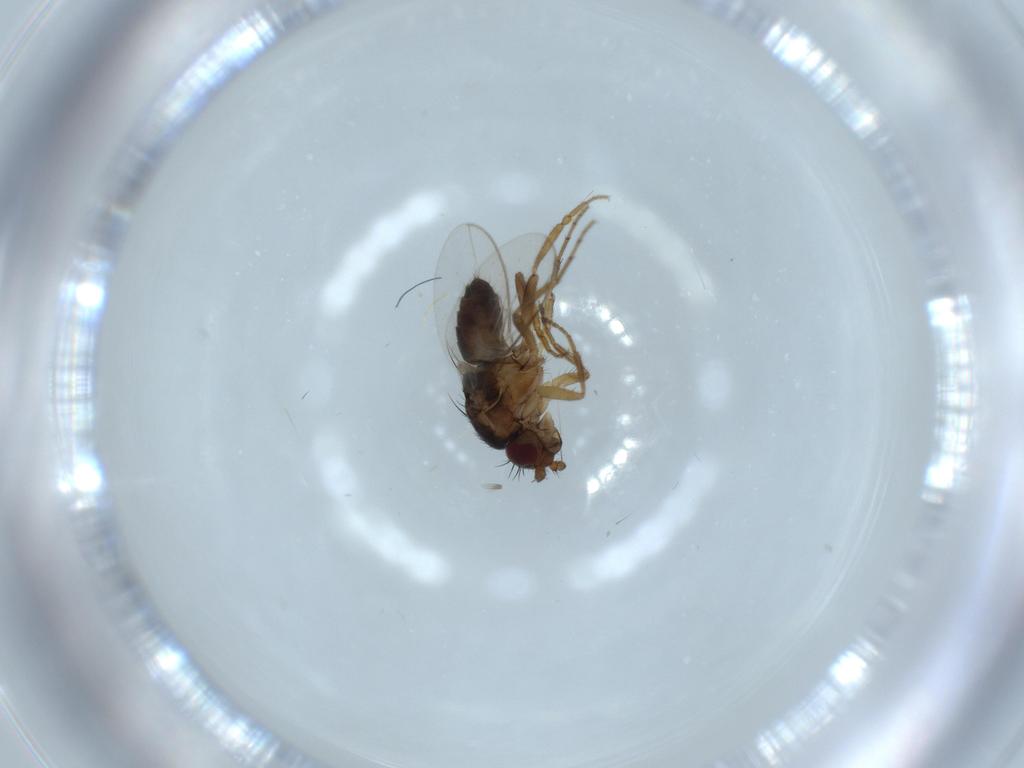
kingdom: Animalia
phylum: Arthropoda
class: Insecta
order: Diptera
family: Sphaeroceridae
